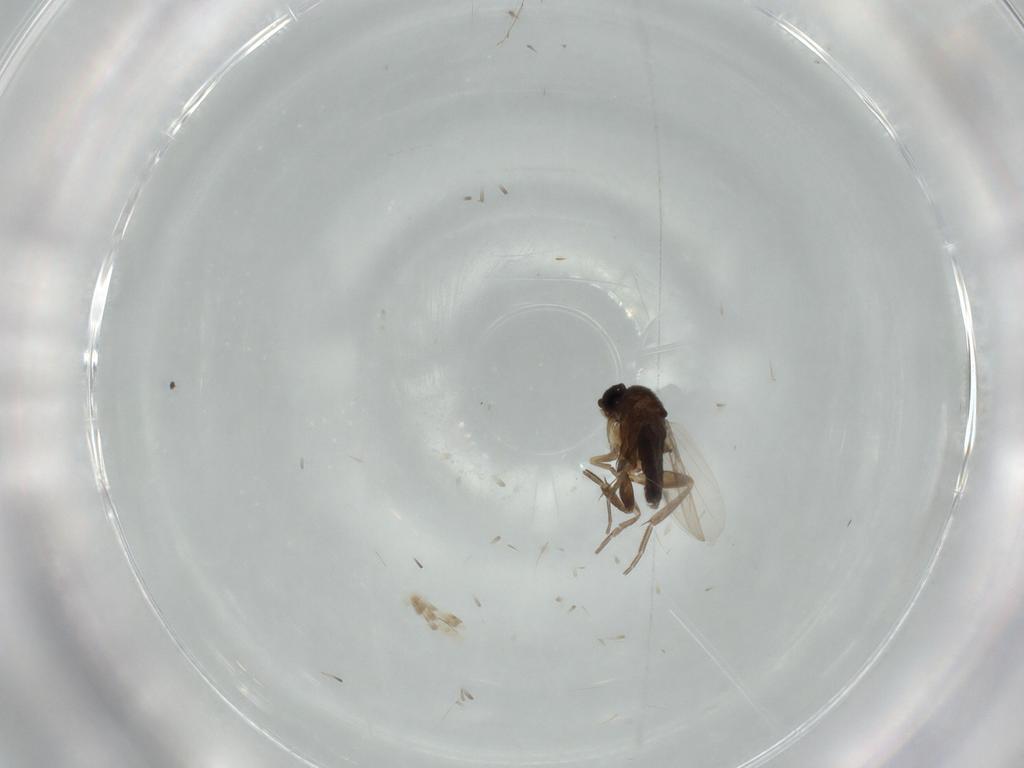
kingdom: Animalia
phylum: Arthropoda
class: Insecta
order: Diptera
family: Phoridae
